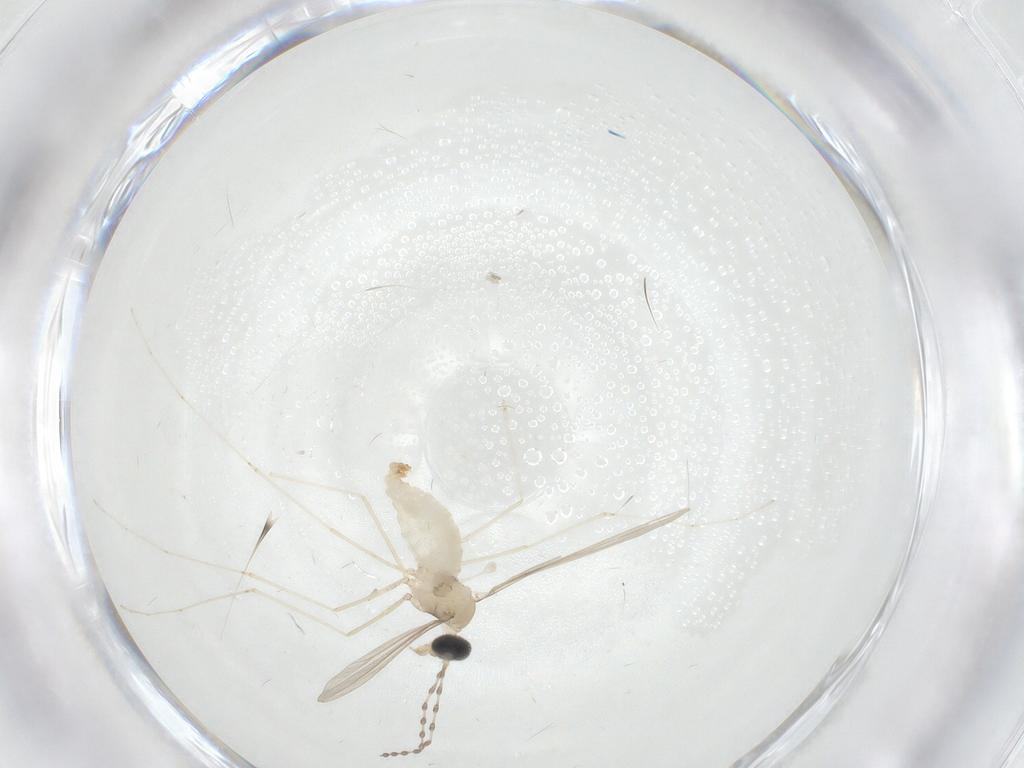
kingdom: Animalia
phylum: Arthropoda
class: Insecta
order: Diptera
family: Cecidomyiidae
